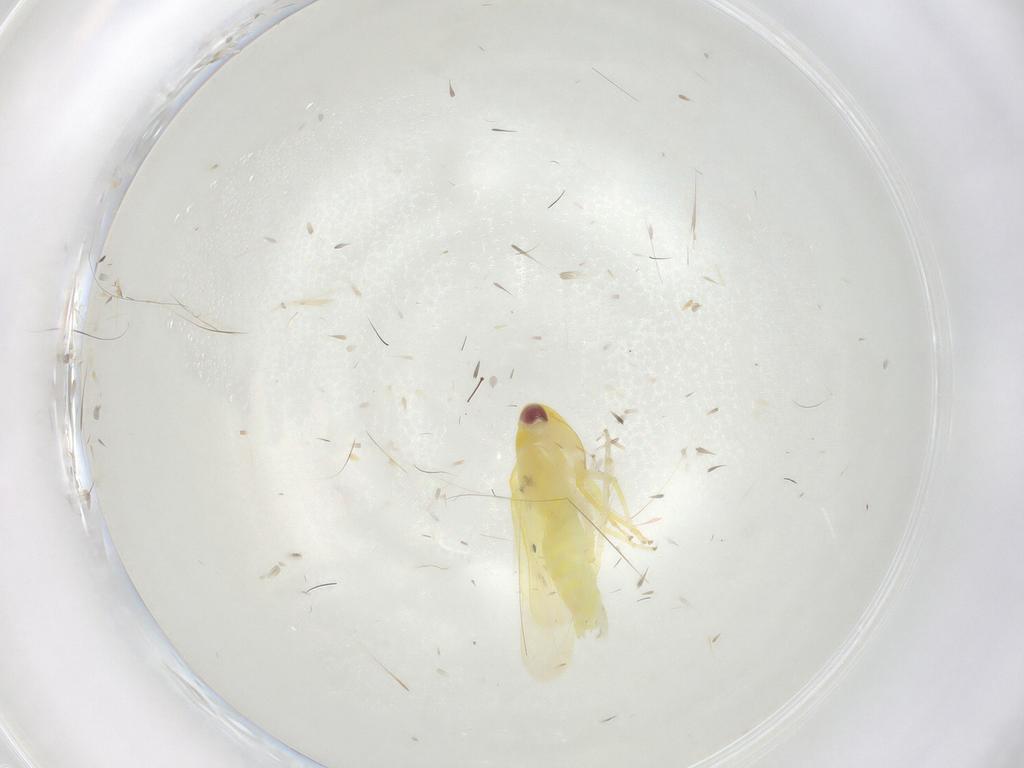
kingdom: Animalia
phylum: Arthropoda
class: Insecta
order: Hemiptera
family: Cicadellidae
